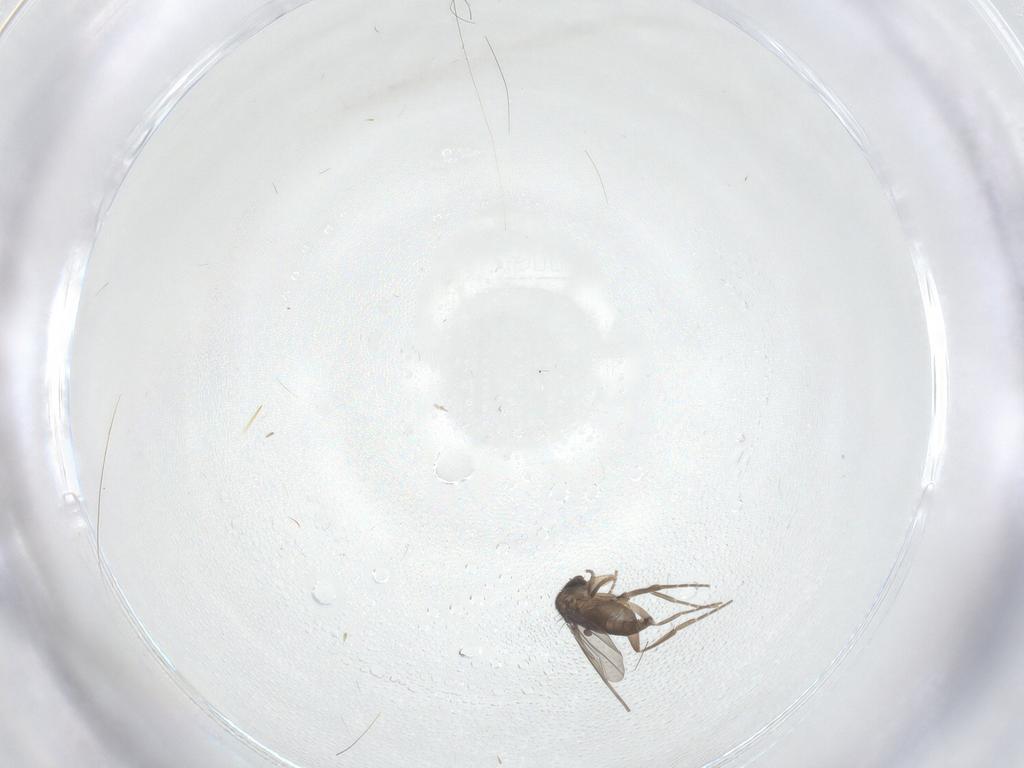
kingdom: Animalia
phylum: Arthropoda
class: Insecta
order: Diptera
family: Phoridae
